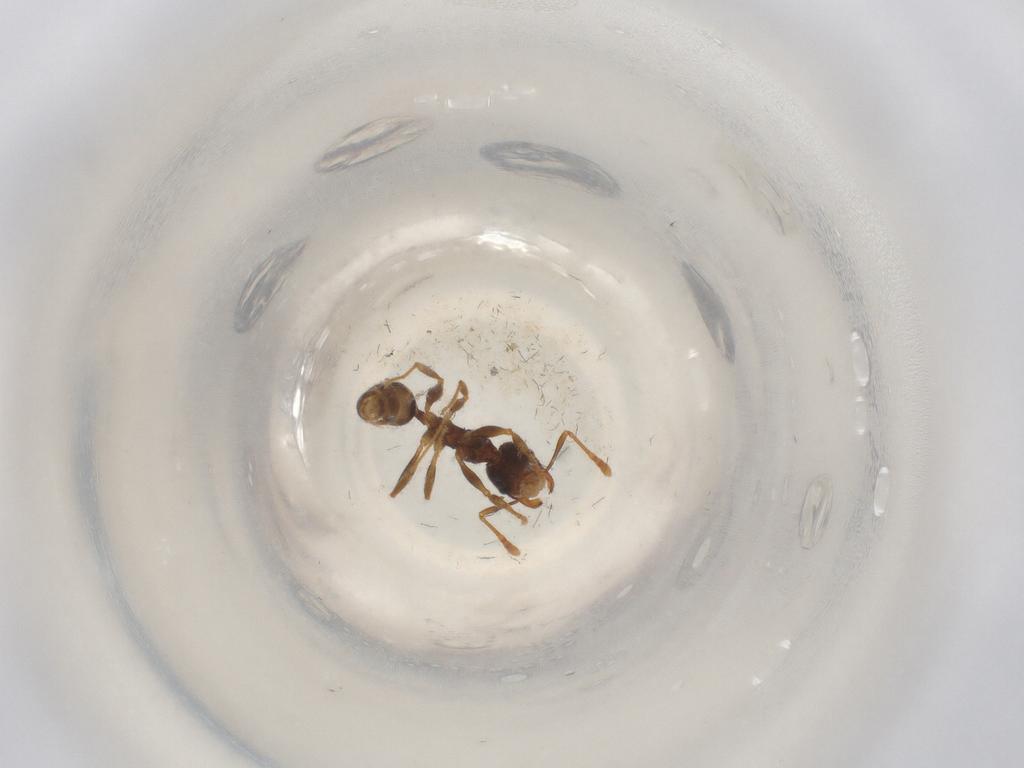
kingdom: Animalia
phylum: Arthropoda
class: Insecta
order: Hymenoptera
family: Formicidae
